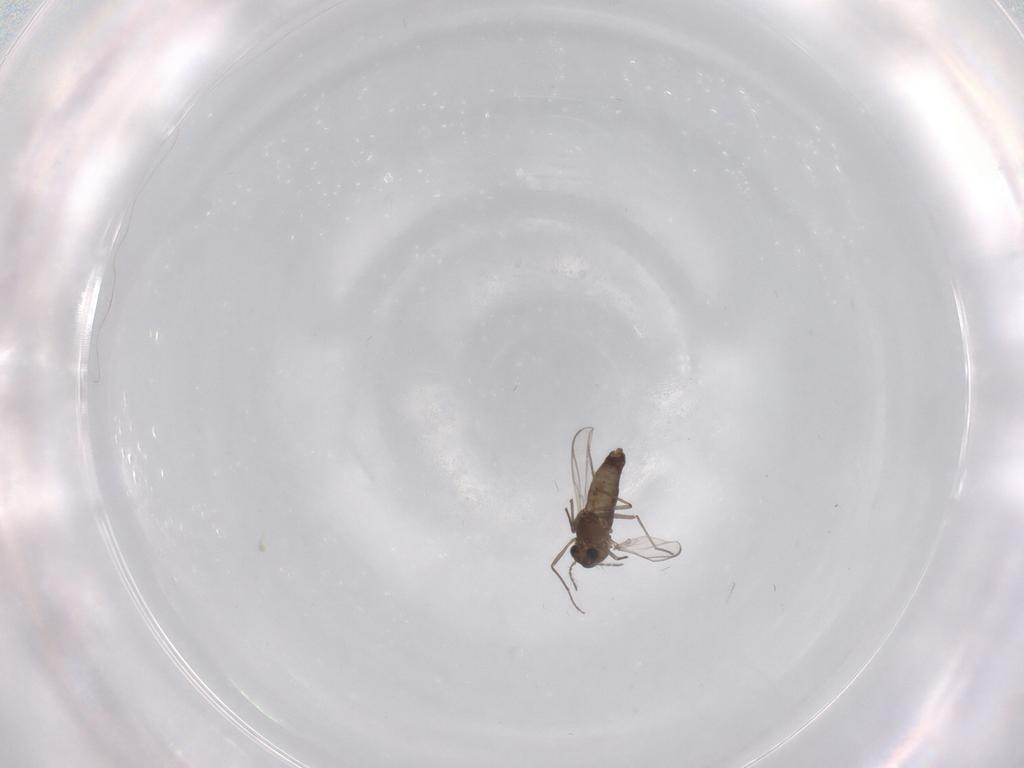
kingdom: Animalia
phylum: Arthropoda
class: Insecta
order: Diptera
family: Chironomidae
